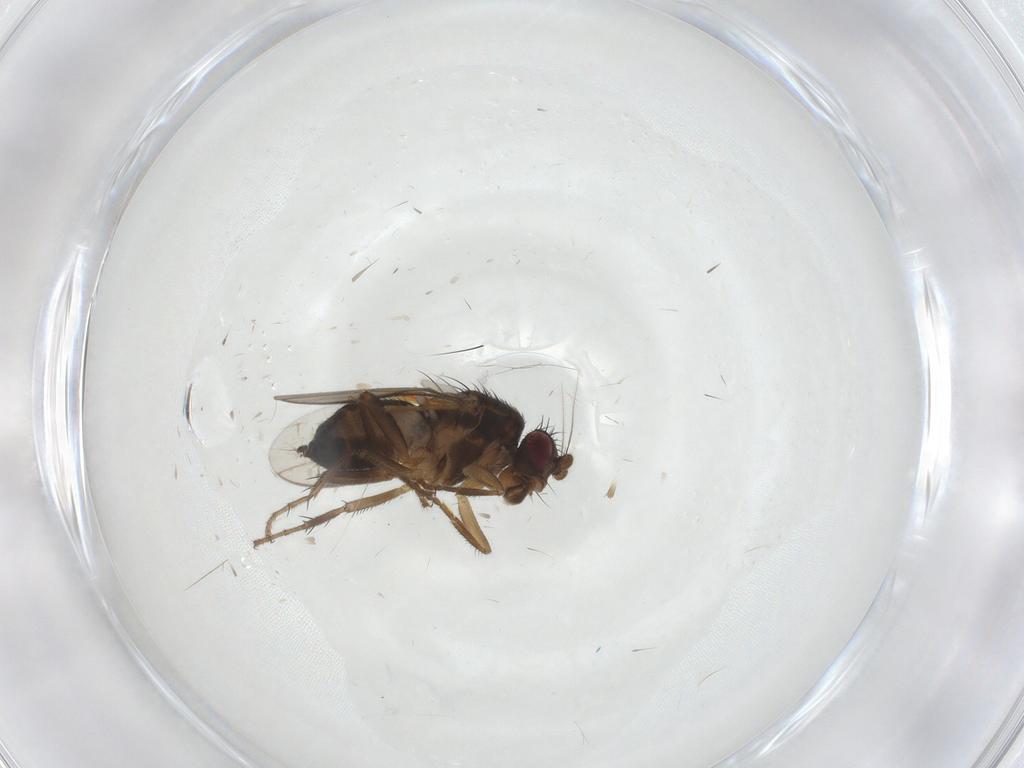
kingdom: Animalia
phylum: Arthropoda
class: Insecta
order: Diptera
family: Sphaeroceridae
